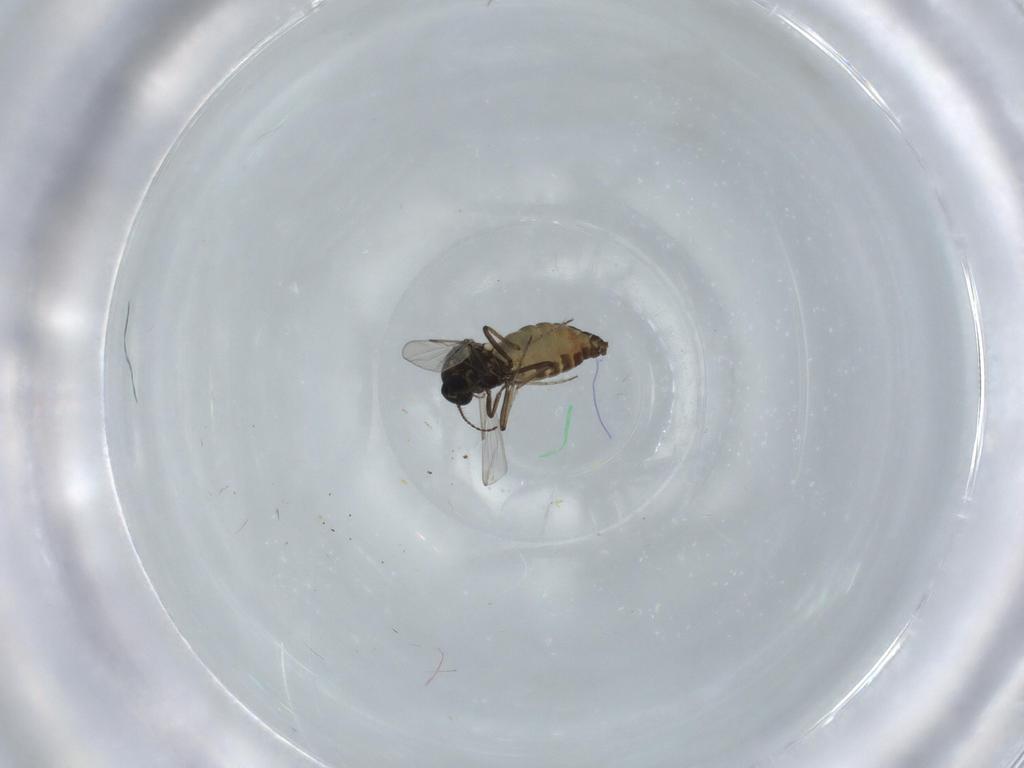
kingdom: Animalia
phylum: Arthropoda
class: Insecta
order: Diptera
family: Chironomidae
